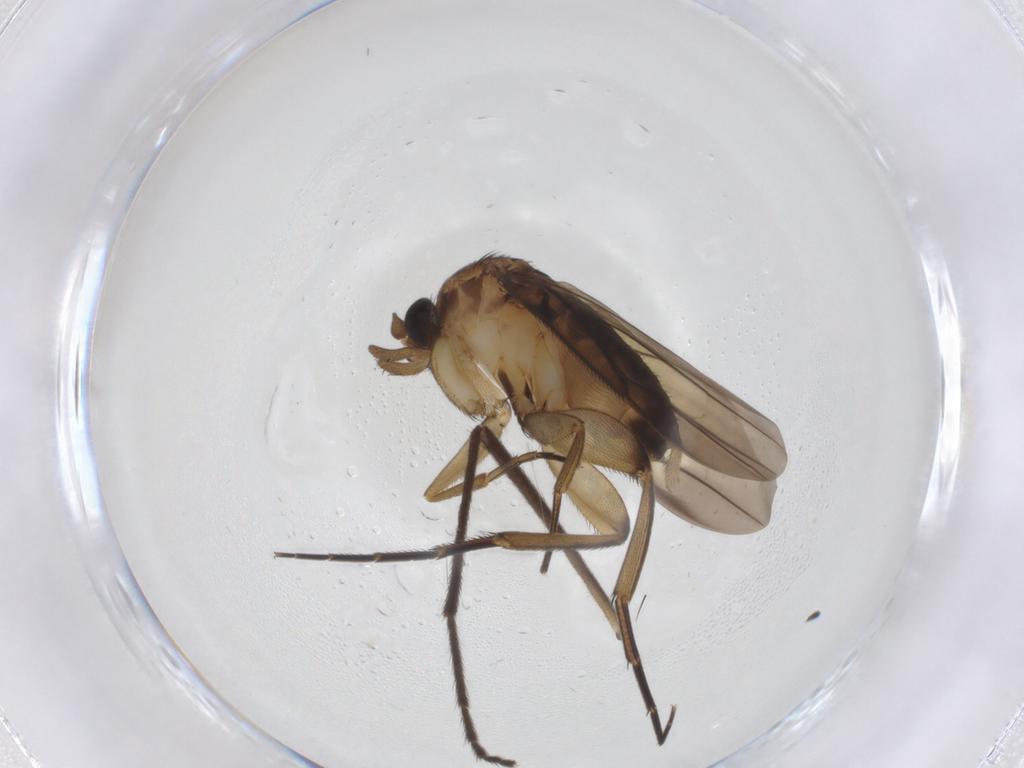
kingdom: Animalia
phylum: Arthropoda
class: Insecta
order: Diptera
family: Phoridae
